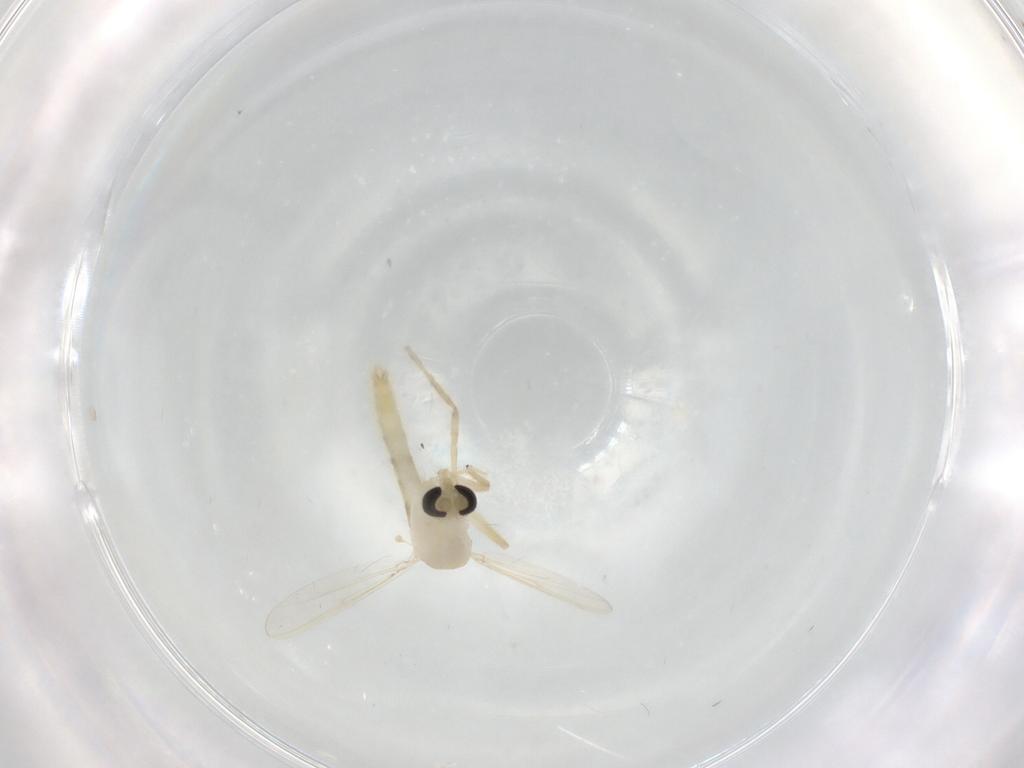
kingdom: Animalia
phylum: Arthropoda
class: Insecta
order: Diptera
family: Chironomidae
